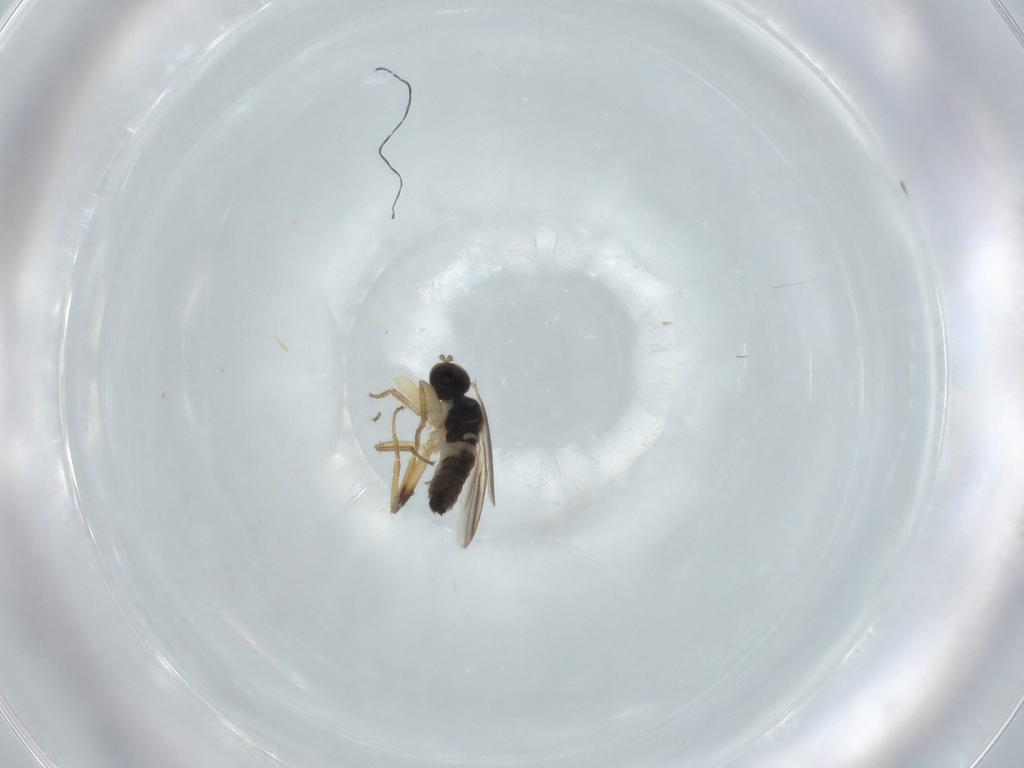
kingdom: Animalia
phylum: Arthropoda
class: Insecta
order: Diptera
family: Hybotidae
